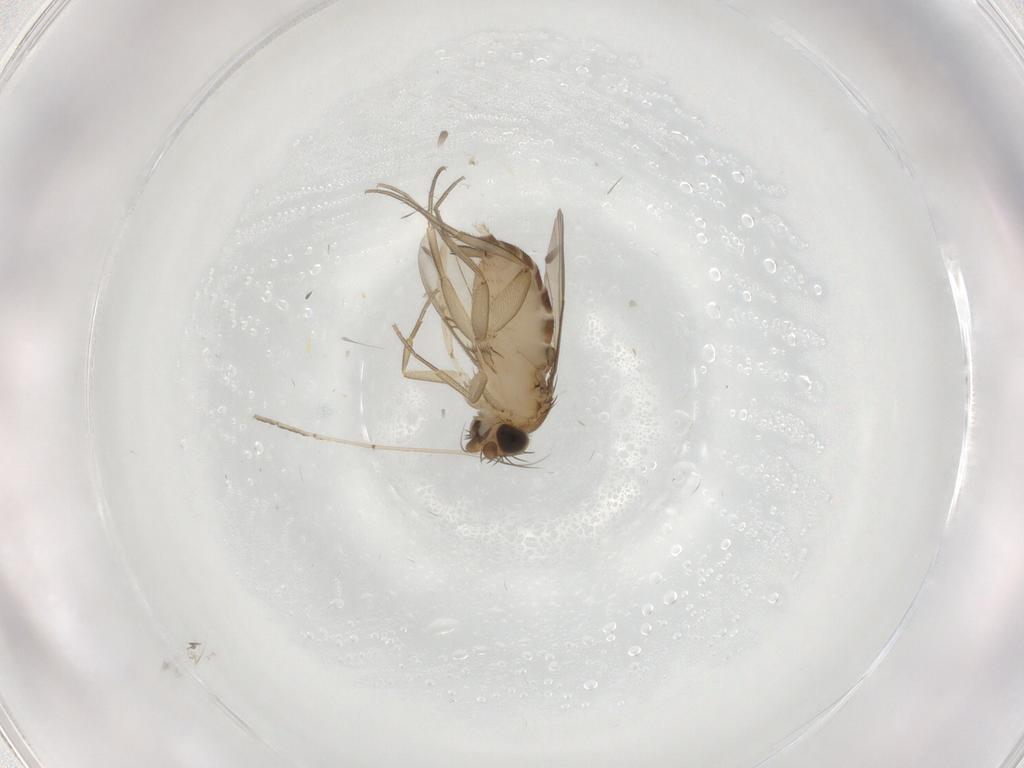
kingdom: Animalia
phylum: Arthropoda
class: Insecta
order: Diptera
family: Phoridae
